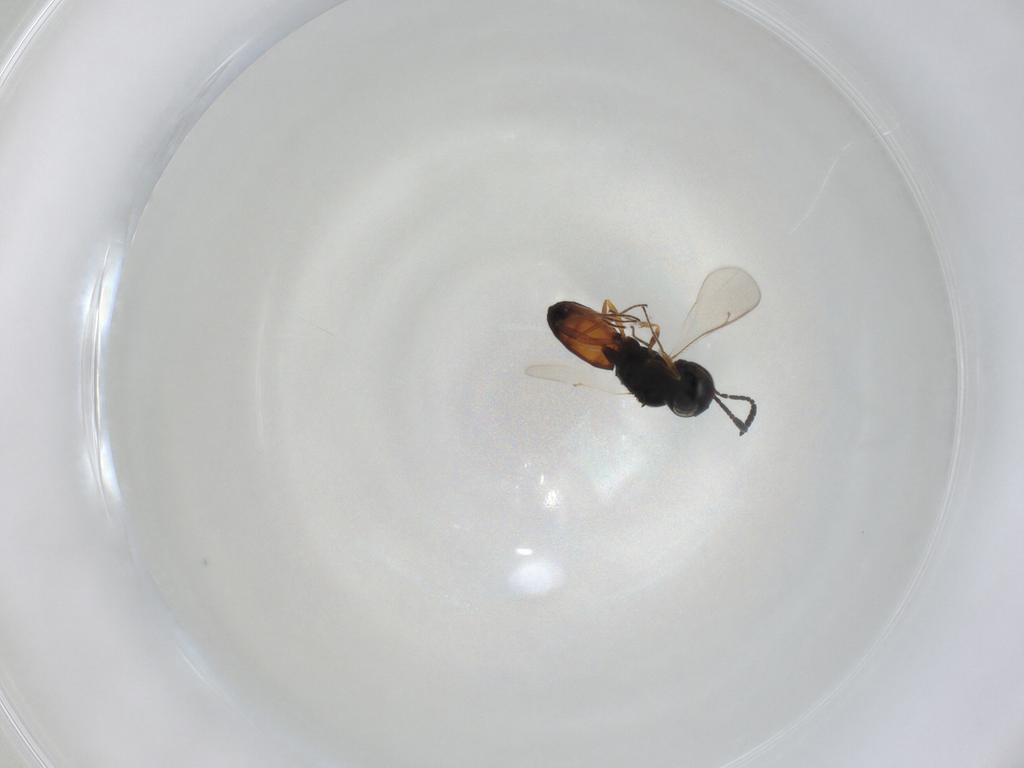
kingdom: Animalia
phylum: Arthropoda
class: Insecta
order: Hymenoptera
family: Scelionidae
